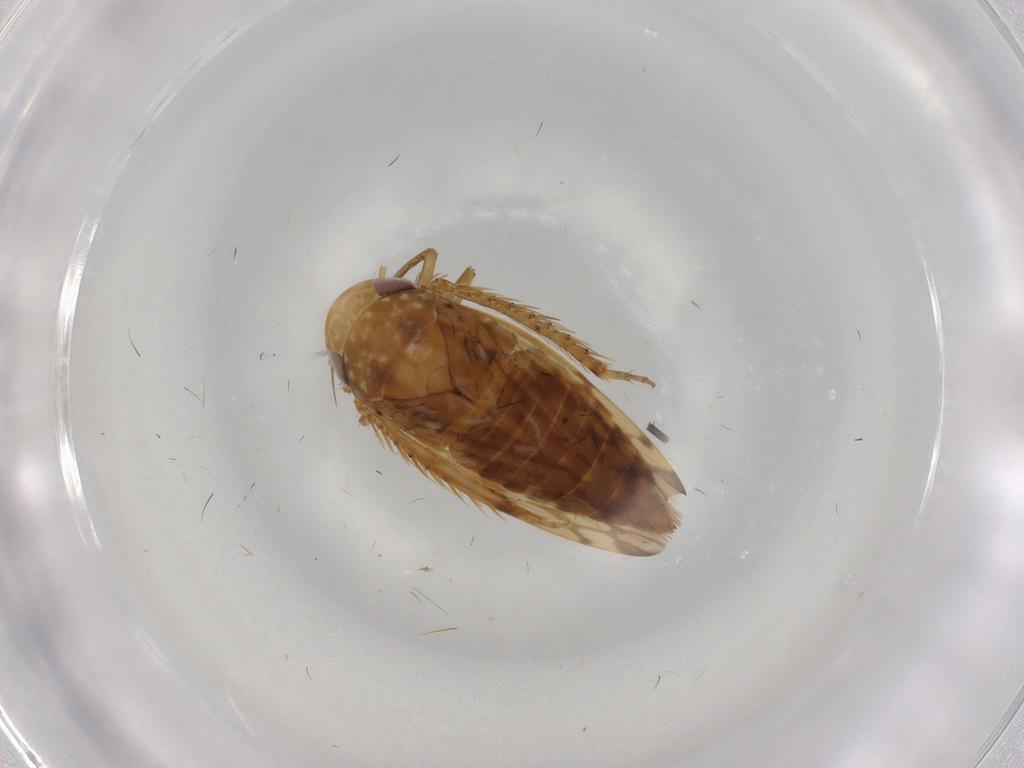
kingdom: Animalia
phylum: Arthropoda
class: Insecta
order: Hemiptera
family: Cicadellidae
